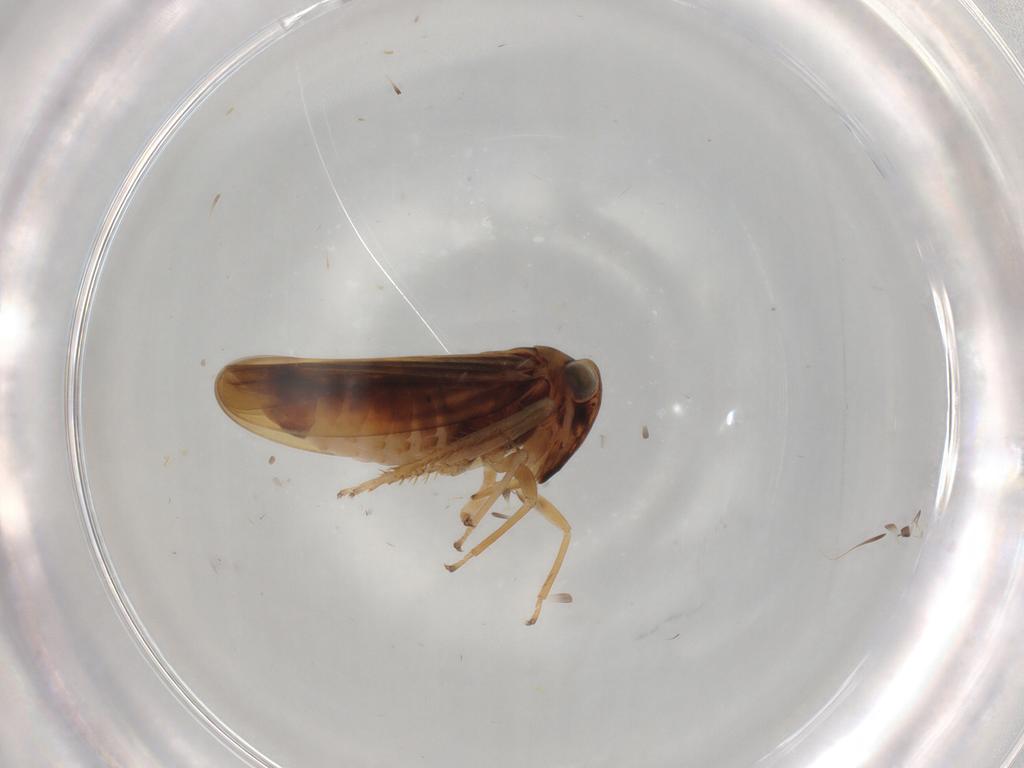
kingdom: Animalia
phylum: Arthropoda
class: Insecta
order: Hemiptera
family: Cicadellidae
